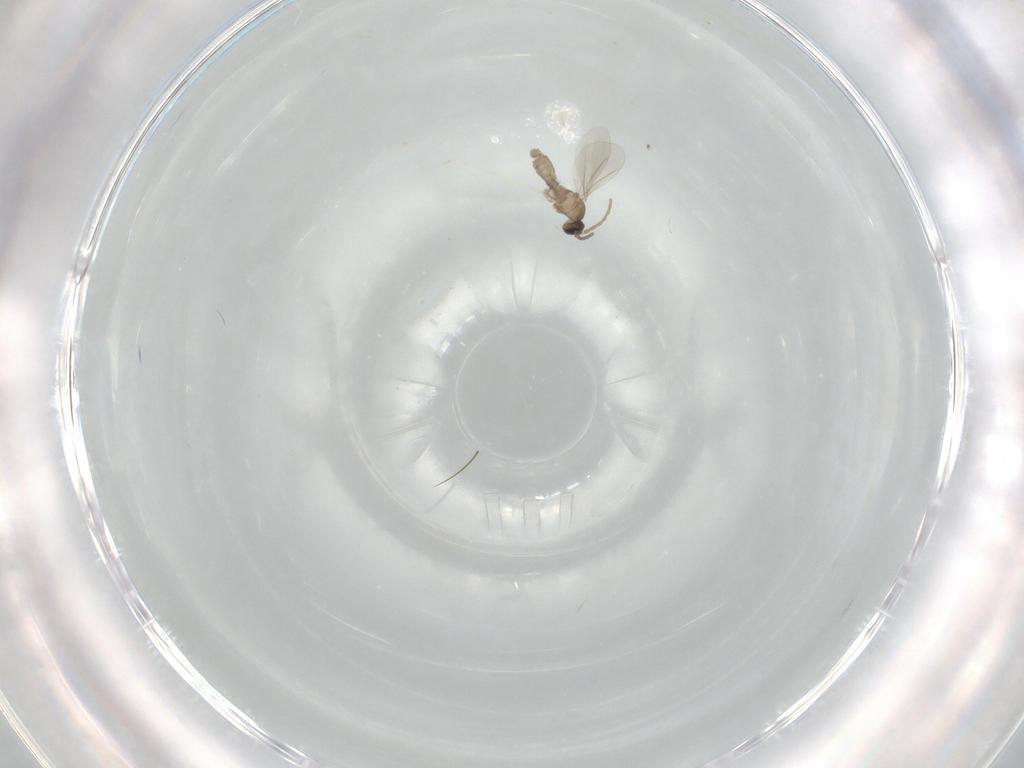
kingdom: Animalia
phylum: Arthropoda
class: Insecta
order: Diptera
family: Cecidomyiidae
